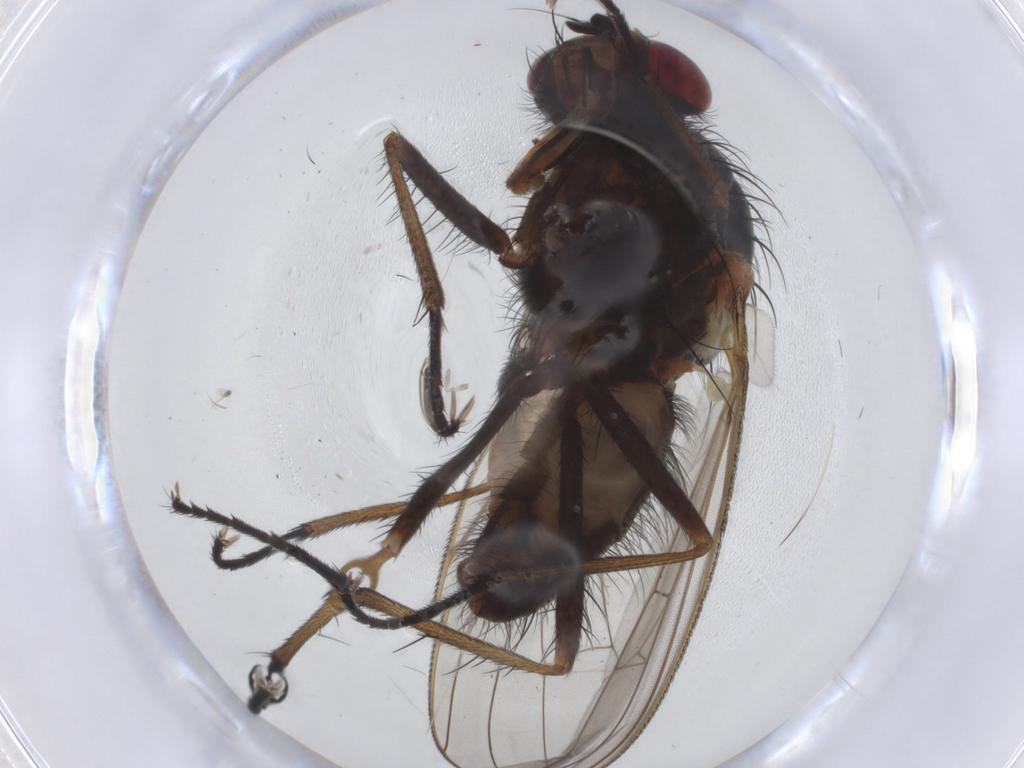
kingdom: Animalia
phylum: Arthropoda
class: Insecta
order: Diptera
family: Anthomyiidae
